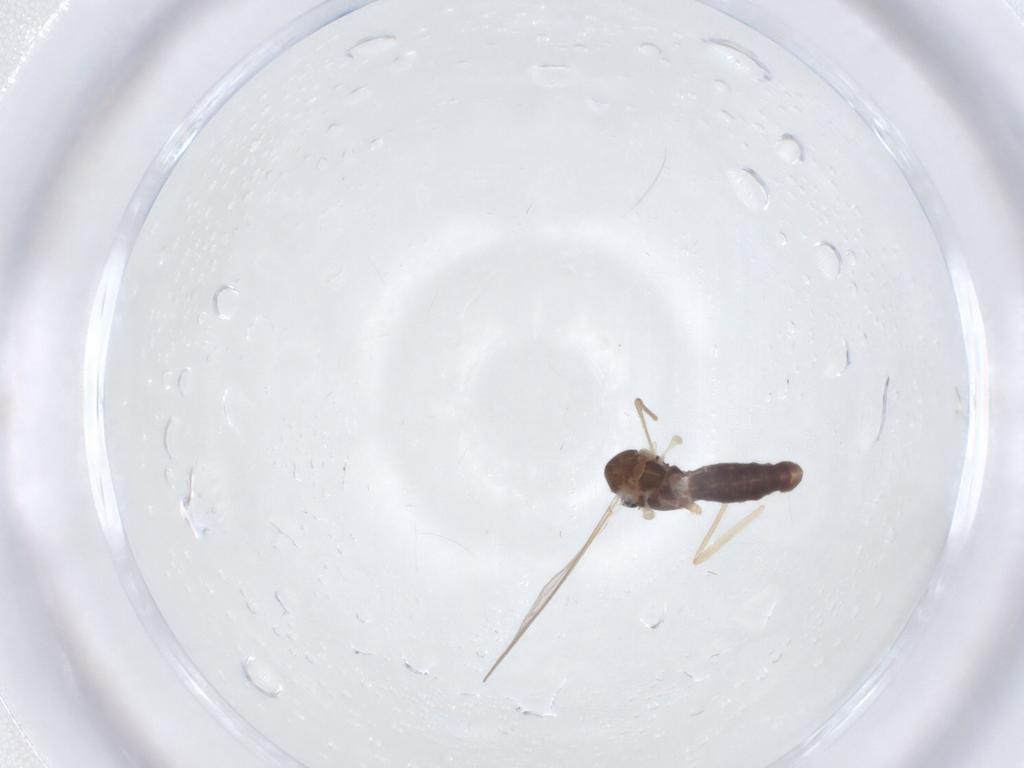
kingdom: Animalia
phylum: Arthropoda
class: Insecta
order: Diptera
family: Chironomidae
